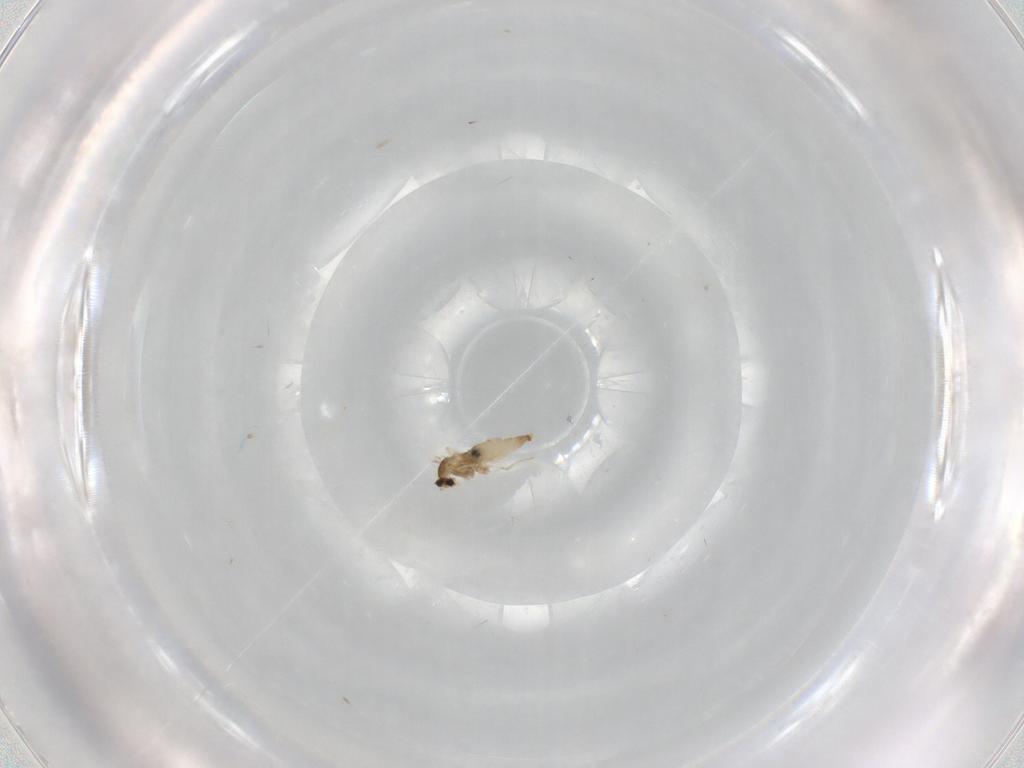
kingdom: Animalia
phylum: Arthropoda
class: Insecta
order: Diptera
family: Cecidomyiidae
